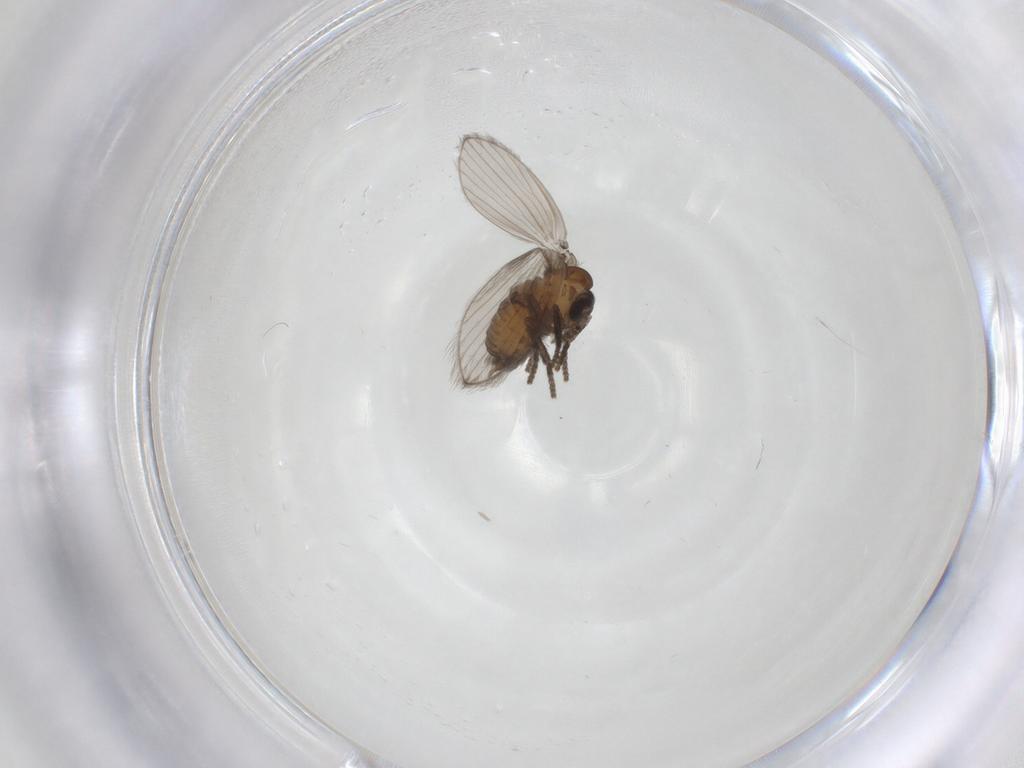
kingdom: Animalia
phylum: Arthropoda
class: Insecta
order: Diptera
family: Psychodidae
